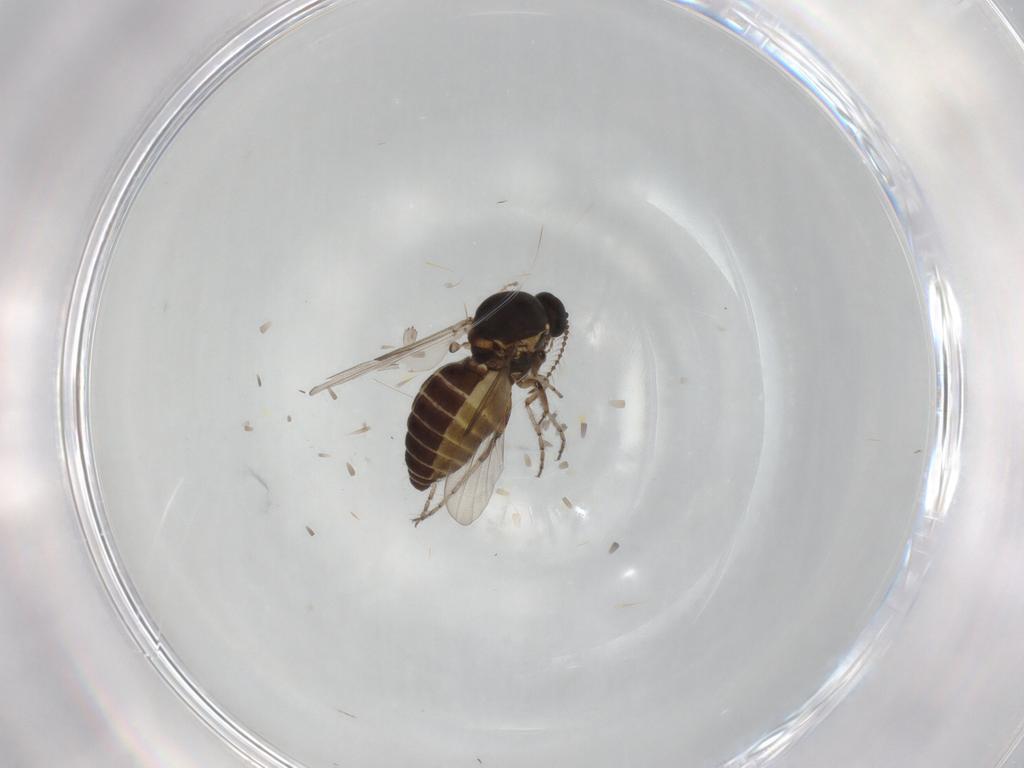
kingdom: Animalia
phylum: Arthropoda
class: Insecta
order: Diptera
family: Ceratopogonidae
